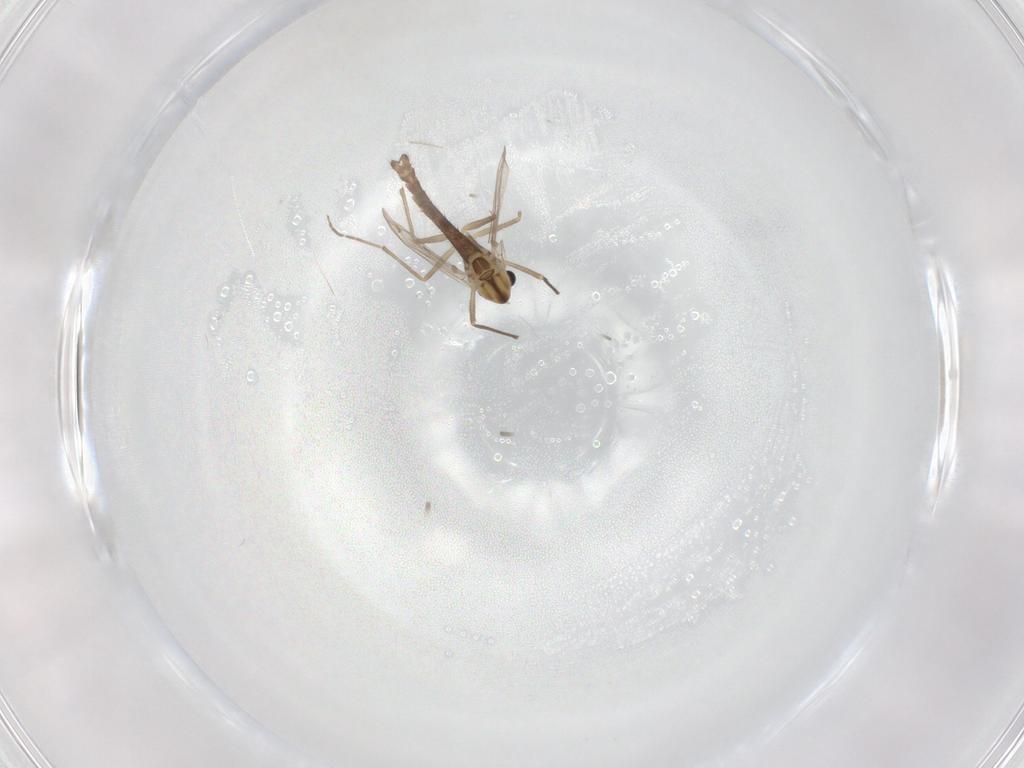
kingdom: Animalia
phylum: Arthropoda
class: Insecta
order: Diptera
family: Chironomidae
